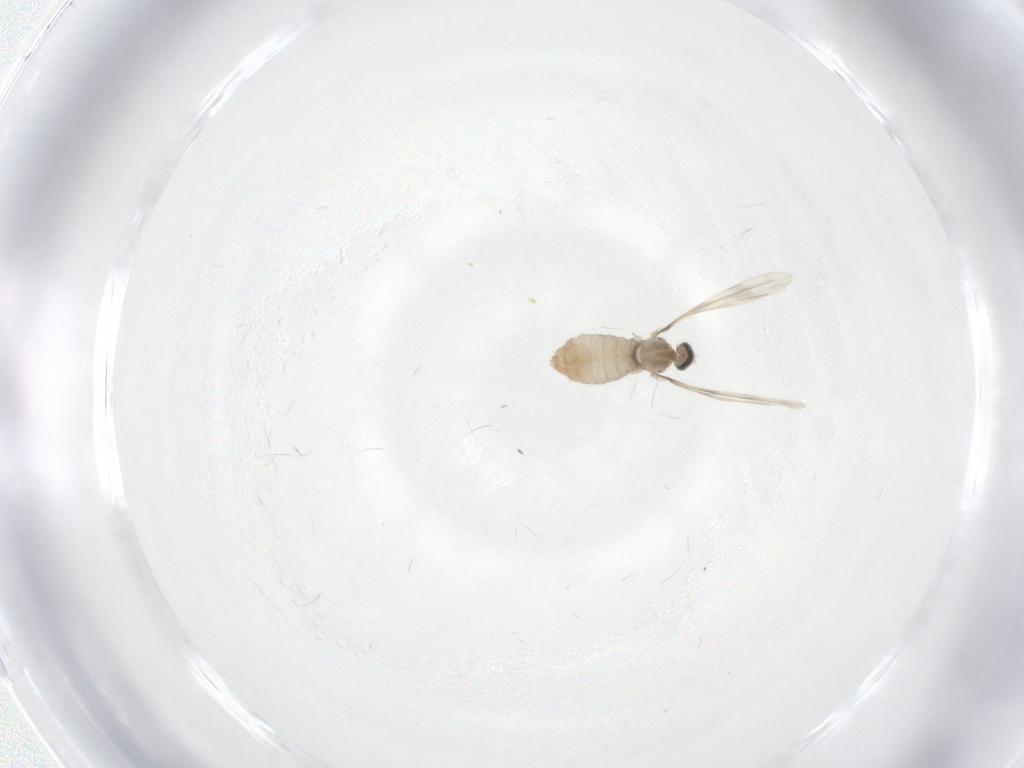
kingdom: Animalia
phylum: Arthropoda
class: Insecta
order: Diptera
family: Cecidomyiidae
